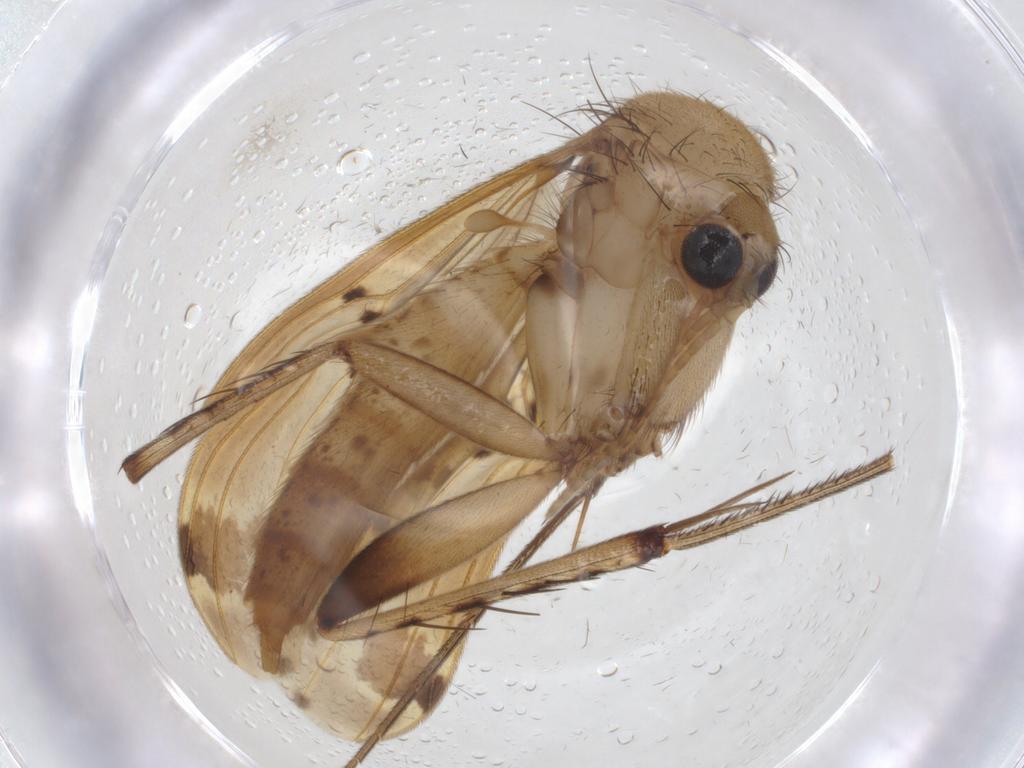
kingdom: Animalia
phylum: Arthropoda
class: Insecta
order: Diptera
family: Mycetophilidae
